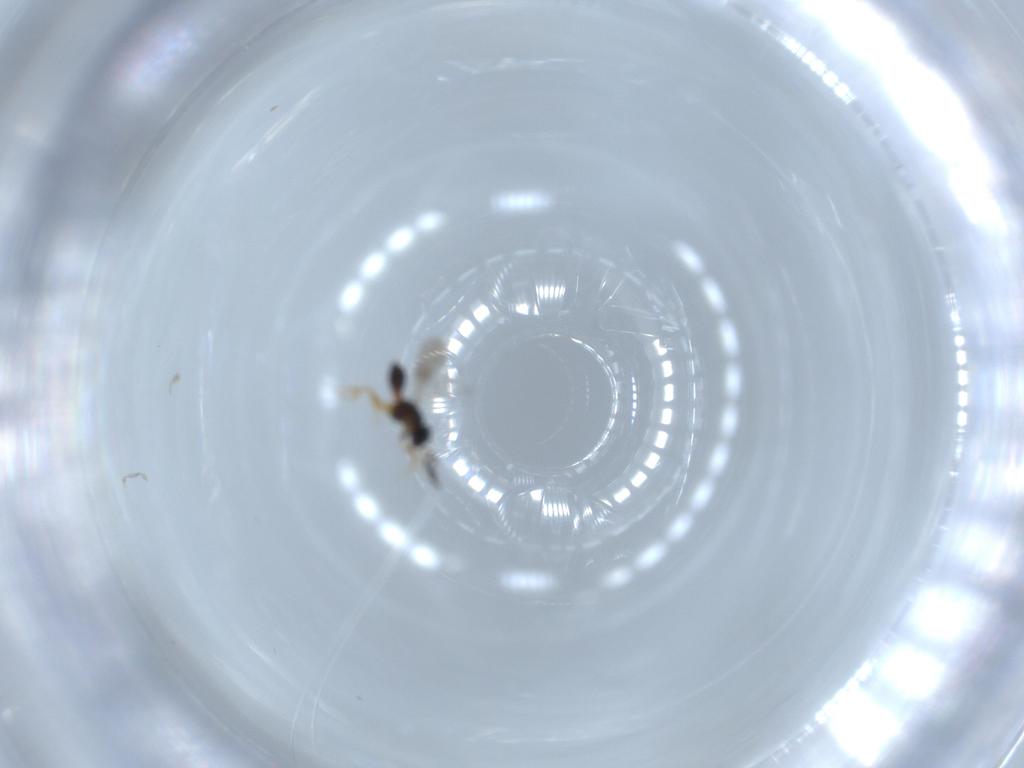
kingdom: Animalia
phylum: Arthropoda
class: Insecta
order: Hymenoptera
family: Scelionidae
